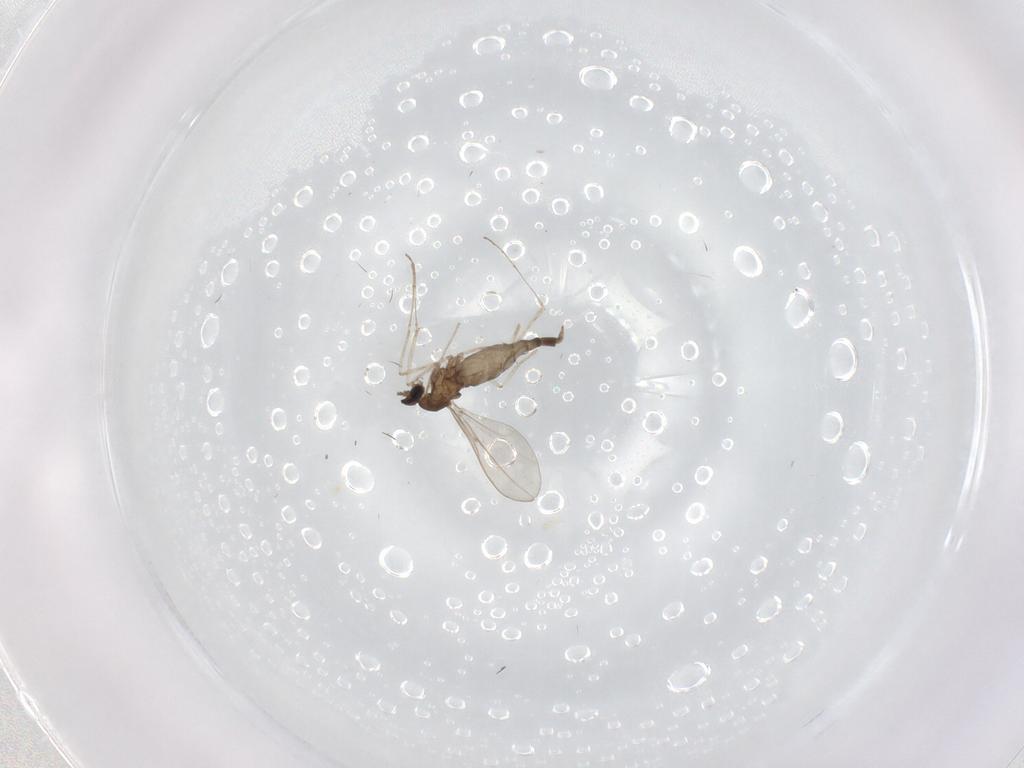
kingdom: Animalia
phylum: Arthropoda
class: Insecta
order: Diptera
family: Cecidomyiidae
